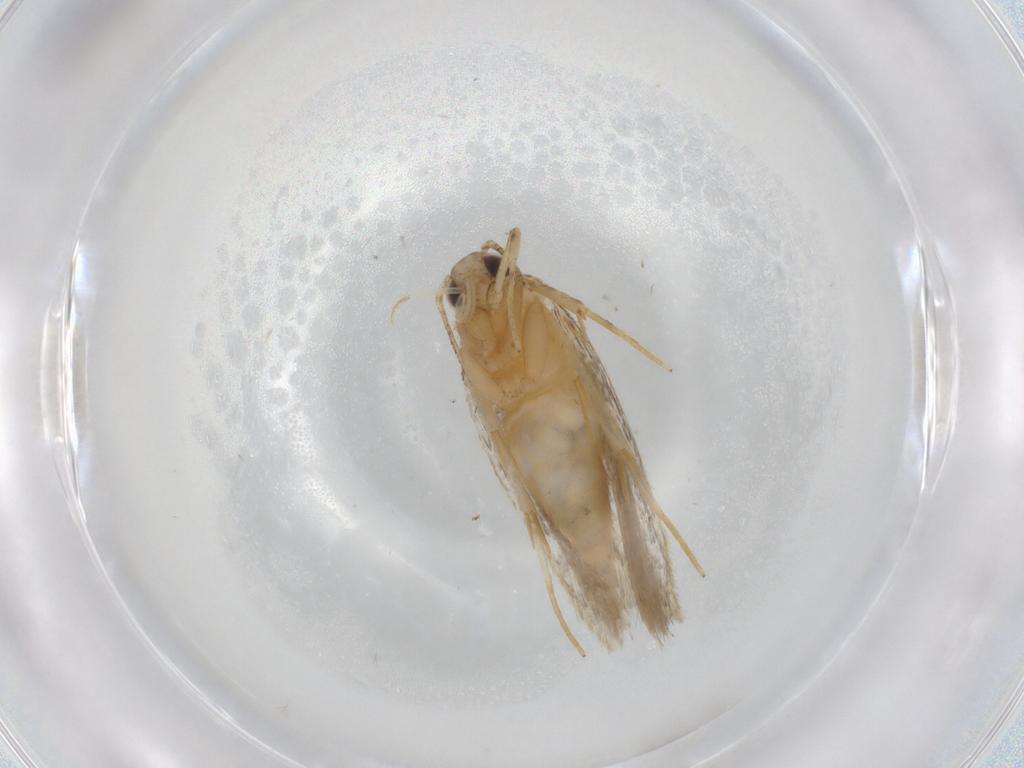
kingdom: Animalia
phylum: Arthropoda
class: Insecta
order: Lepidoptera
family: Autostichidae
